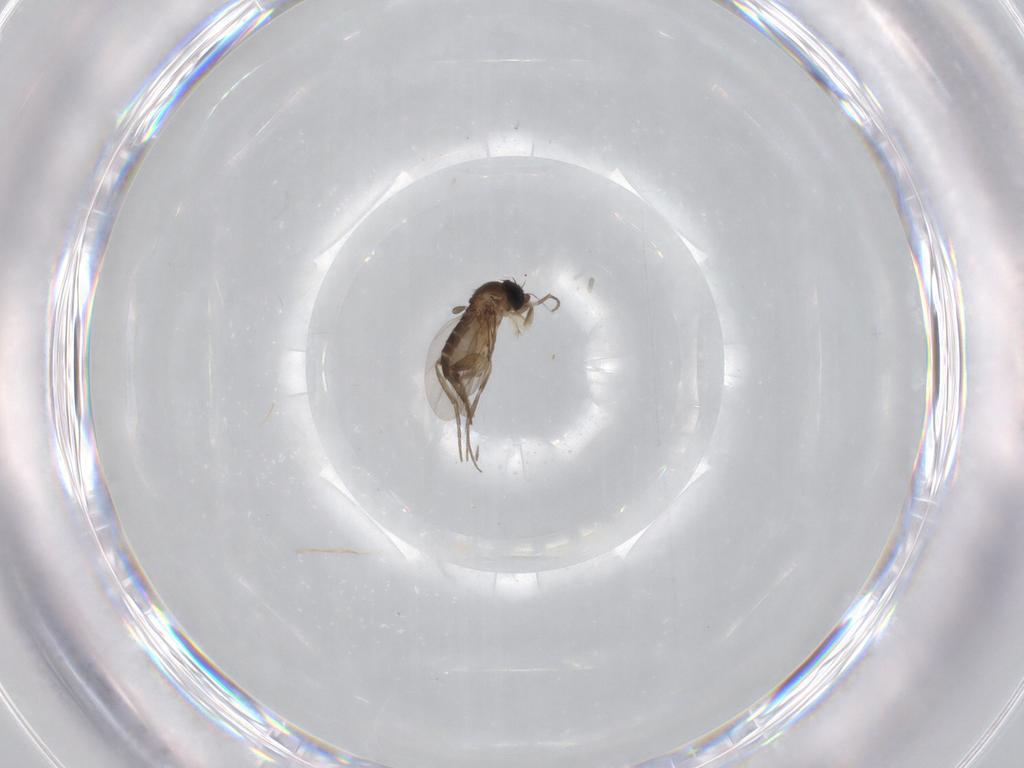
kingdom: Animalia
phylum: Arthropoda
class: Insecta
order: Diptera
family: Phoridae
